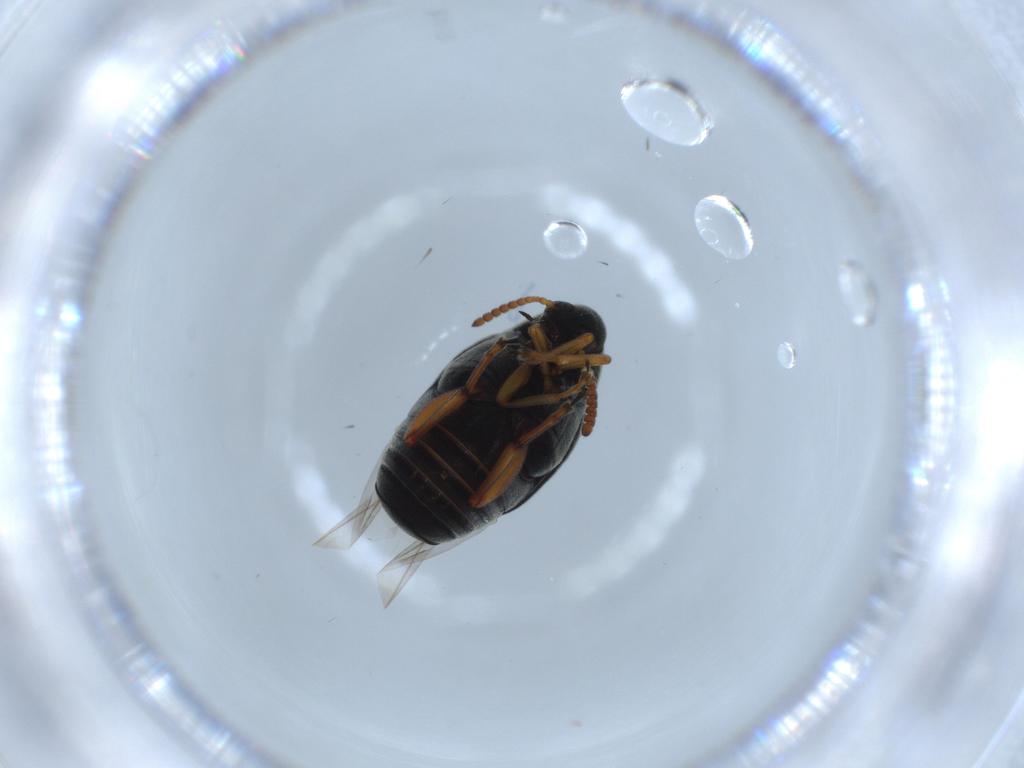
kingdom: Animalia
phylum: Arthropoda
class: Insecta
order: Coleoptera
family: Chrysomelidae
